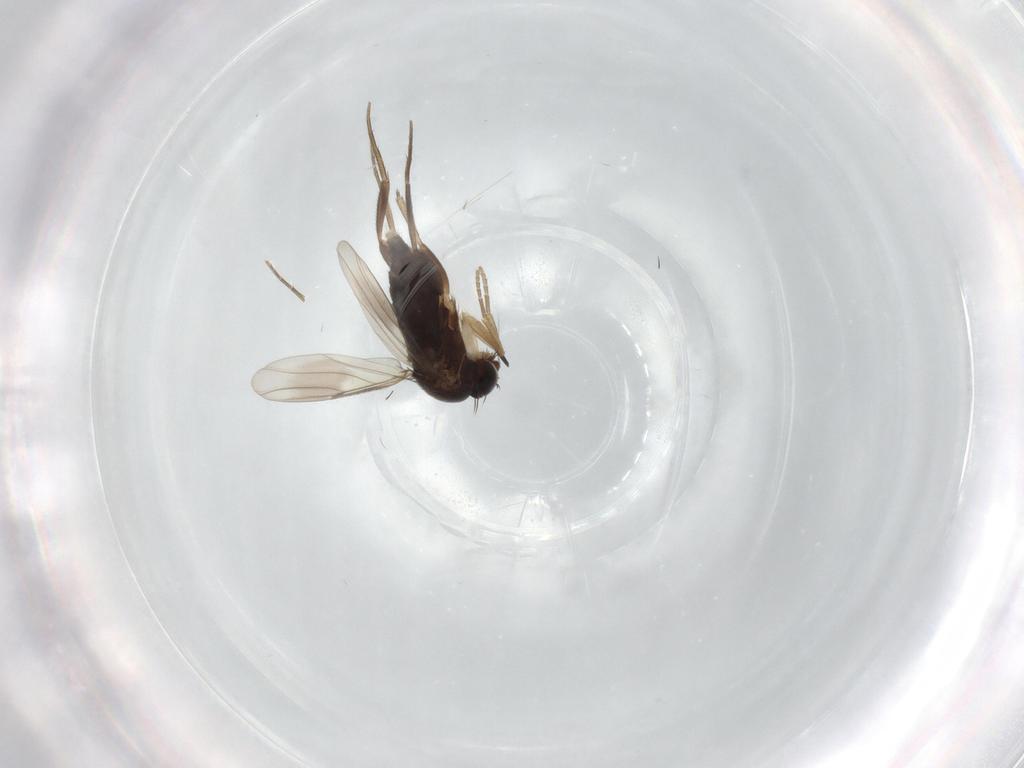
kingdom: Animalia
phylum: Arthropoda
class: Insecta
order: Diptera
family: Phoridae
